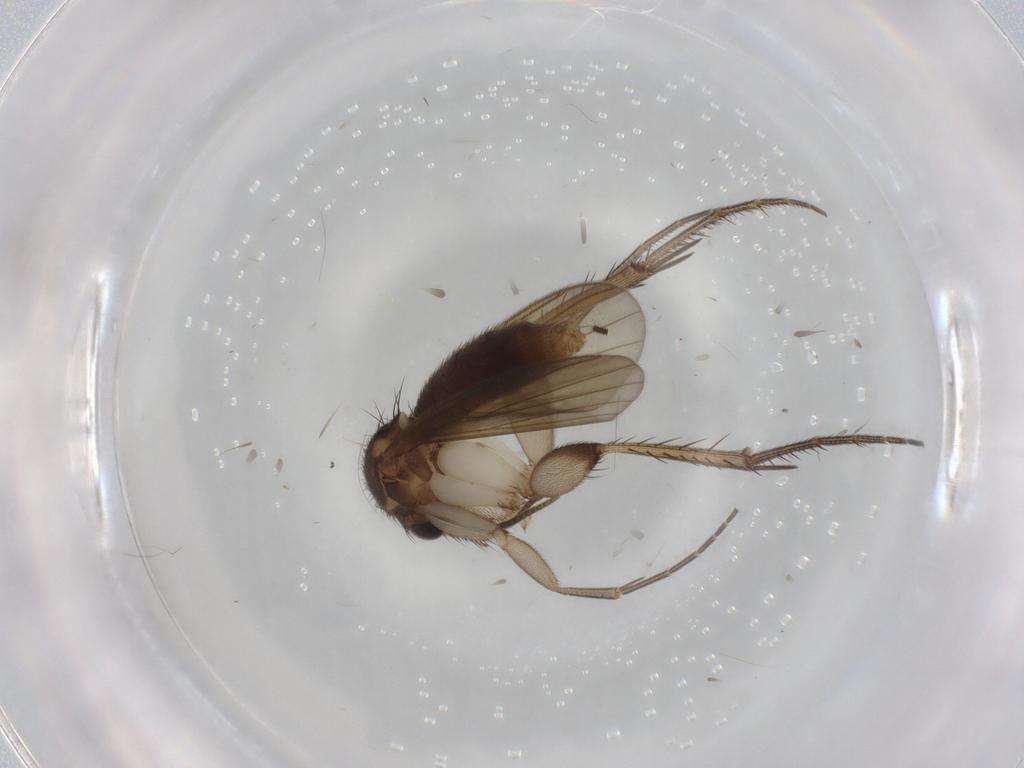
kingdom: Animalia
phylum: Arthropoda
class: Insecta
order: Diptera
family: Mycetophilidae
